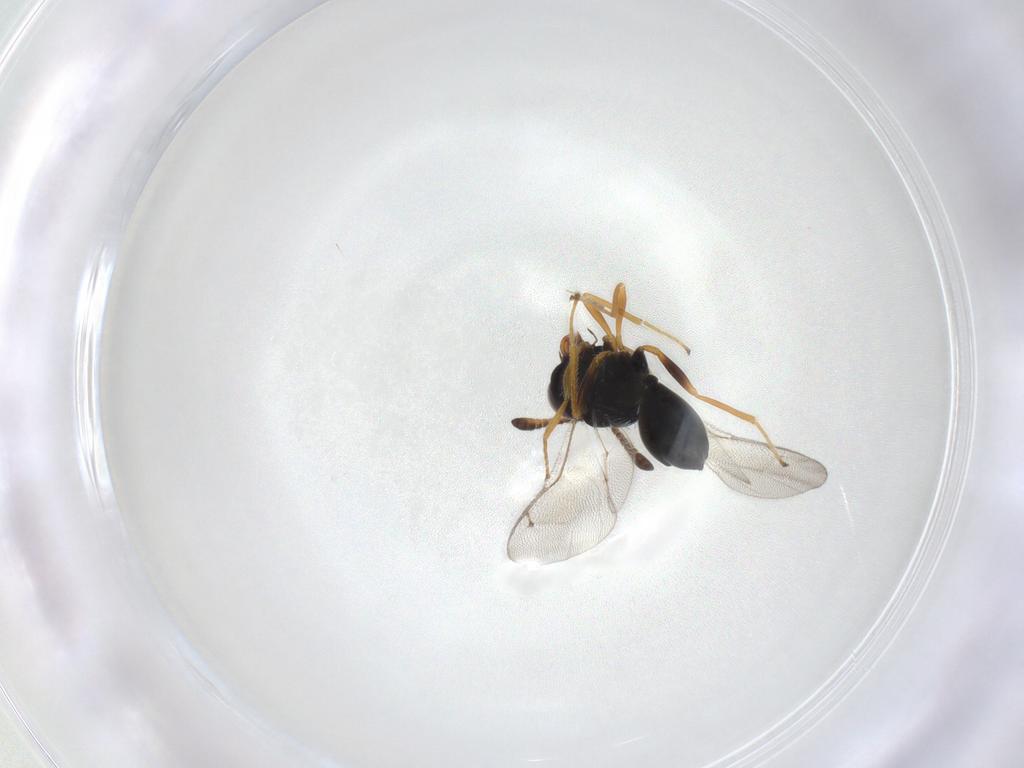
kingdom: Animalia
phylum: Arthropoda
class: Insecta
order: Hymenoptera
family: Pteromalidae
